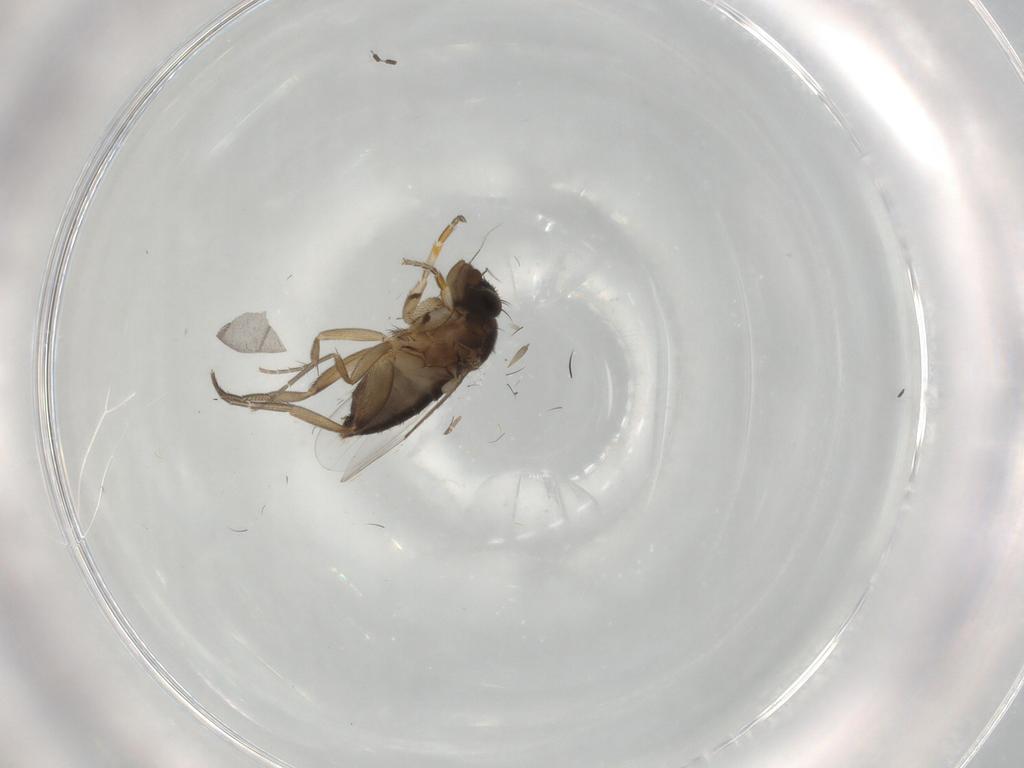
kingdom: Animalia
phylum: Arthropoda
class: Insecta
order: Diptera
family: Phoridae
